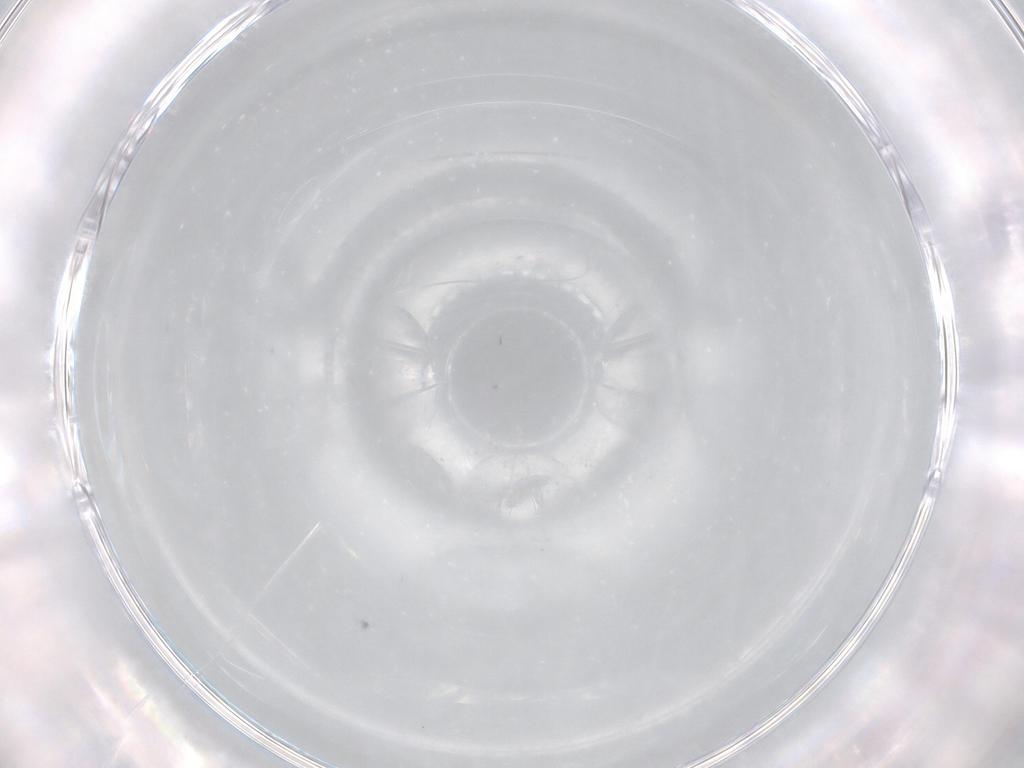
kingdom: Animalia
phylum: Arthropoda
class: Insecta
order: Hymenoptera
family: Scelionidae
